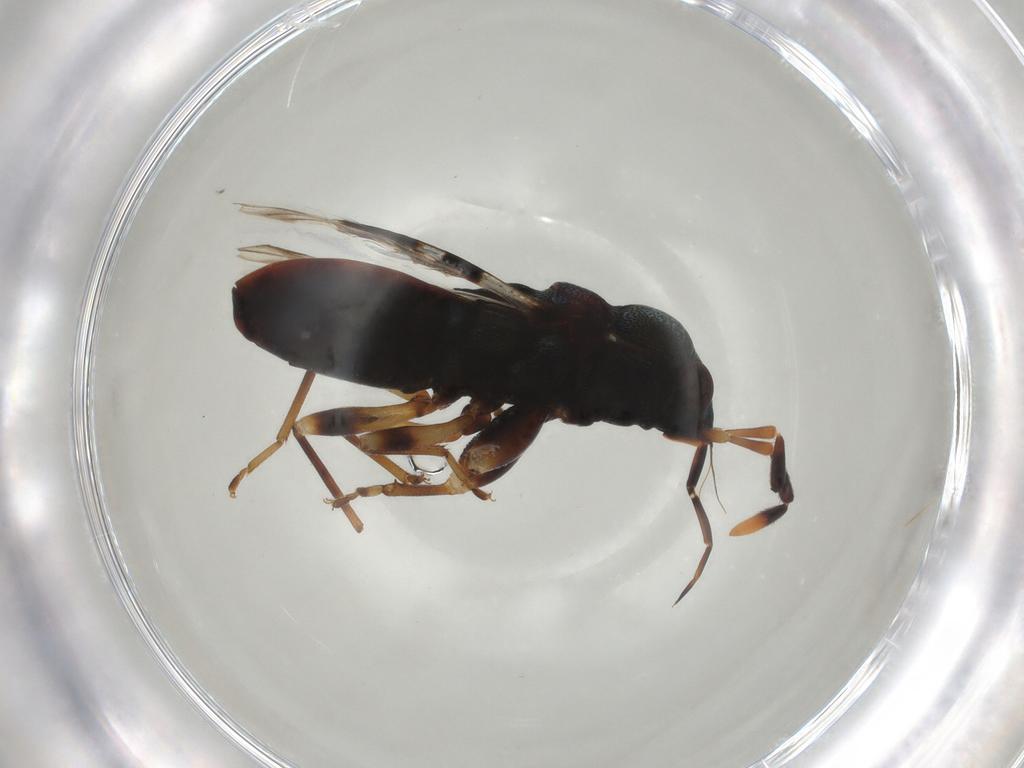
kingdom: Animalia
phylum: Arthropoda
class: Insecta
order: Hemiptera
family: Rhyparochromidae
